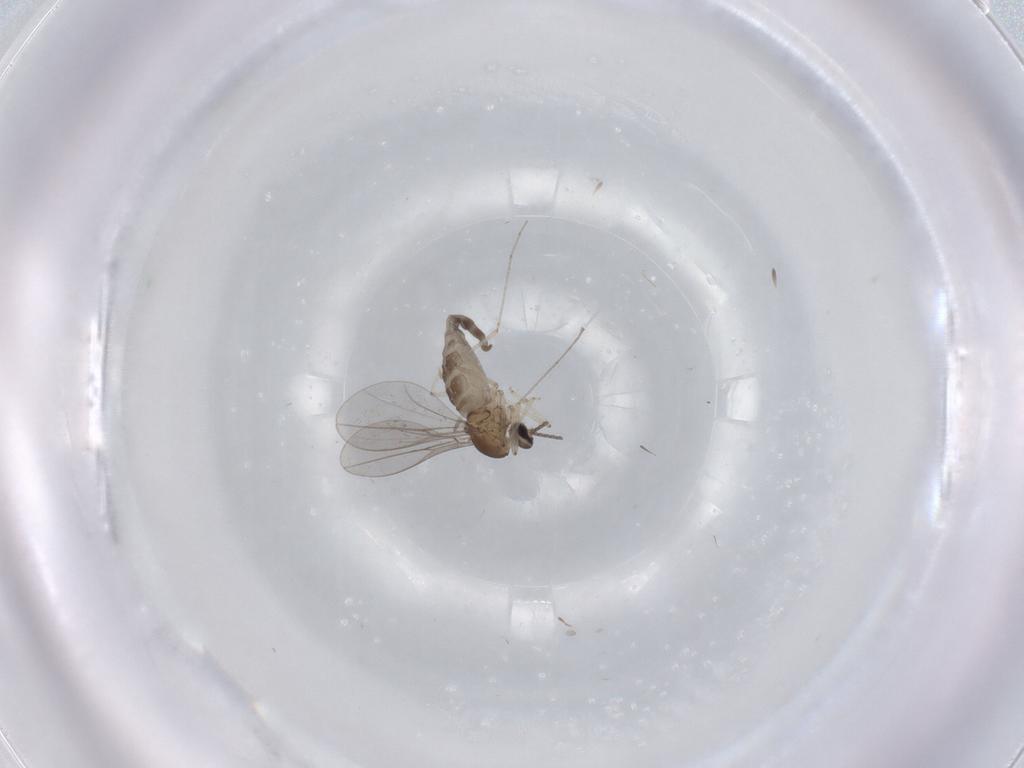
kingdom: Animalia
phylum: Arthropoda
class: Insecta
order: Diptera
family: Cecidomyiidae
